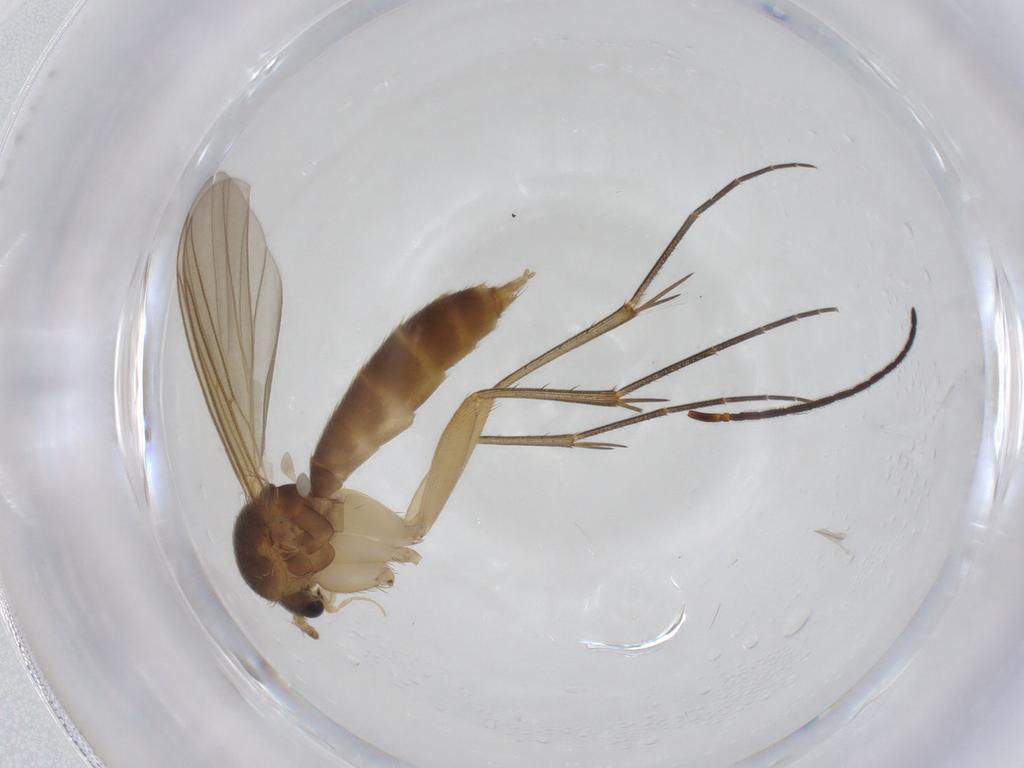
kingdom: Animalia
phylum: Arthropoda
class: Insecta
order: Diptera
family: Mycetophilidae
